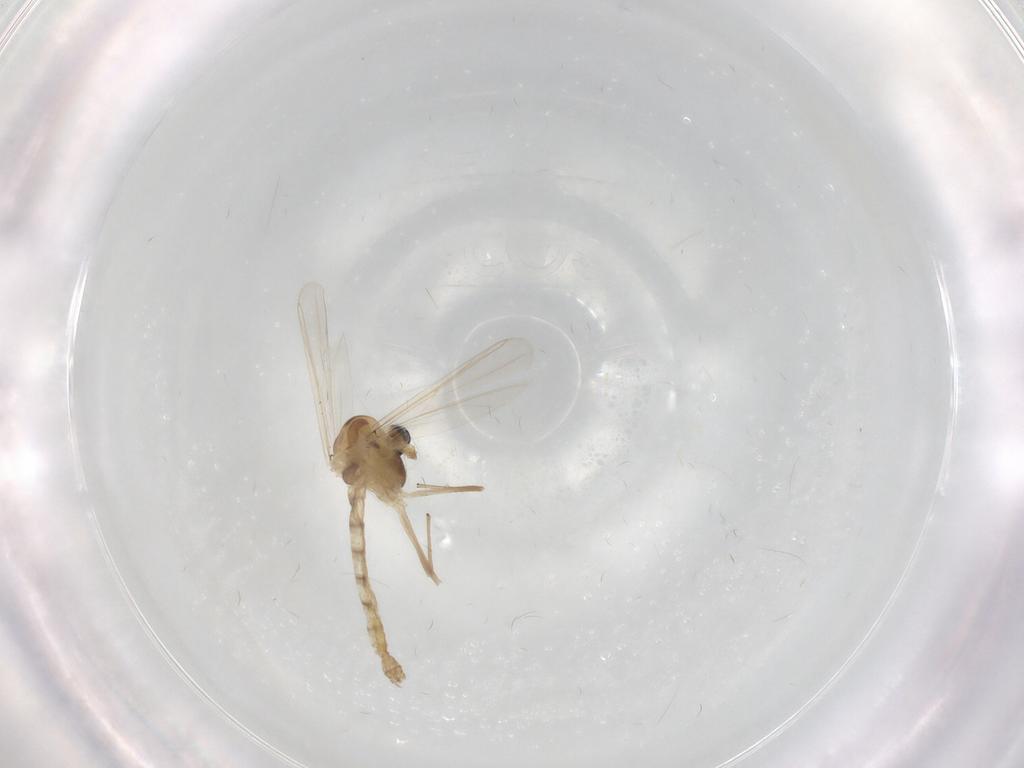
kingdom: Animalia
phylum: Arthropoda
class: Insecta
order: Diptera
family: Chironomidae
